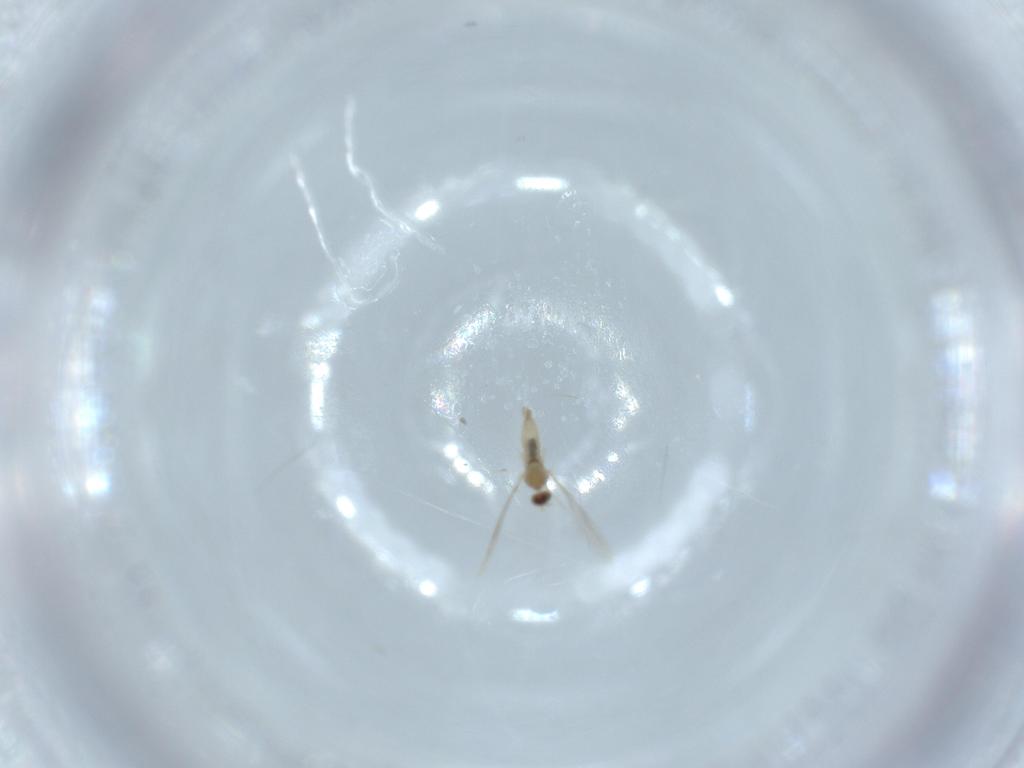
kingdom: Animalia
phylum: Arthropoda
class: Insecta
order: Diptera
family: Cecidomyiidae
